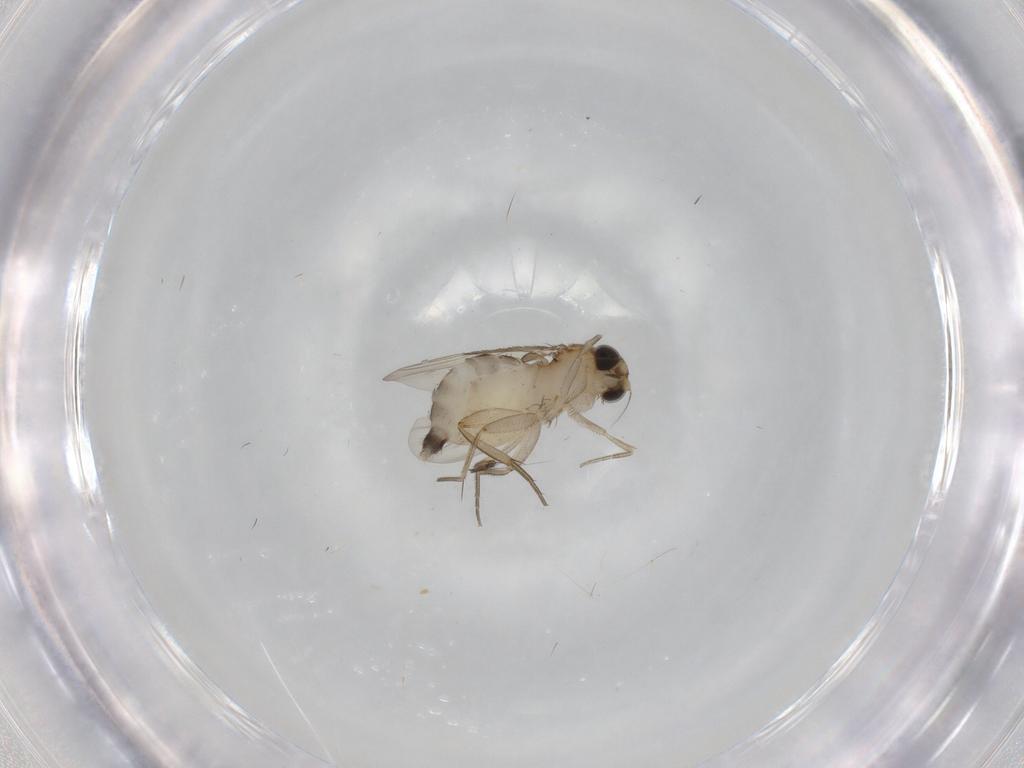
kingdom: Animalia
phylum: Arthropoda
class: Insecta
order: Diptera
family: Phoridae
